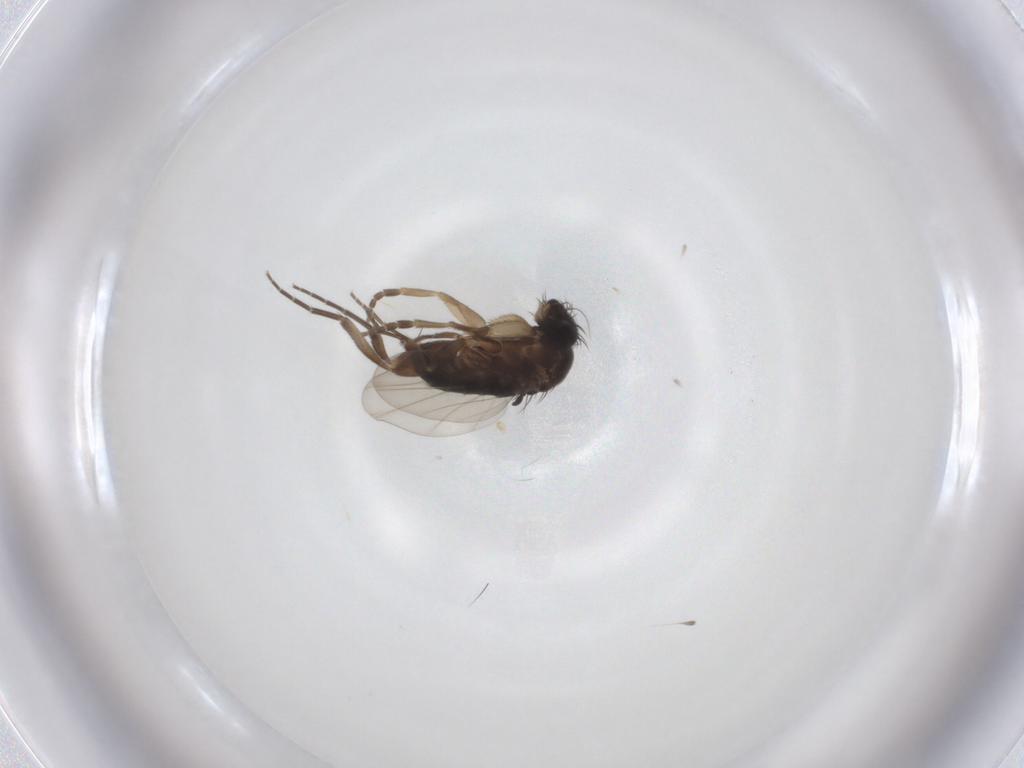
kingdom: Animalia
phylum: Arthropoda
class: Insecta
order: Diptera
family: Phoridae
